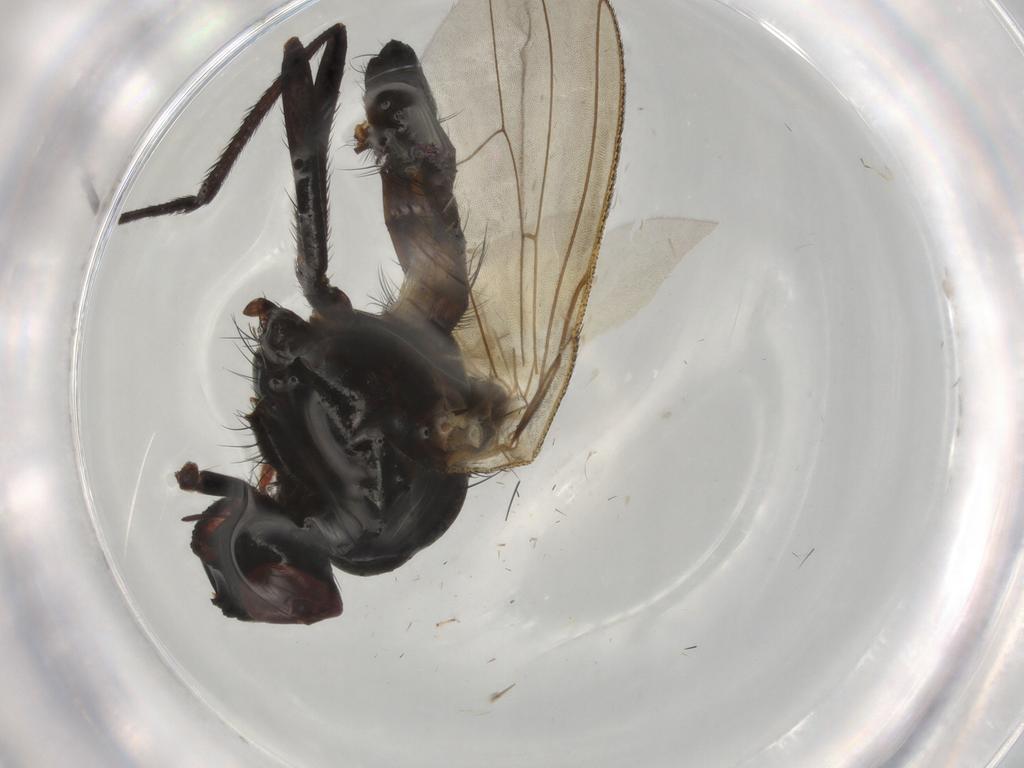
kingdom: Animalia
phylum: Arthropoda
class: Insecta
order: Diptera
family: Anthomyiidae
